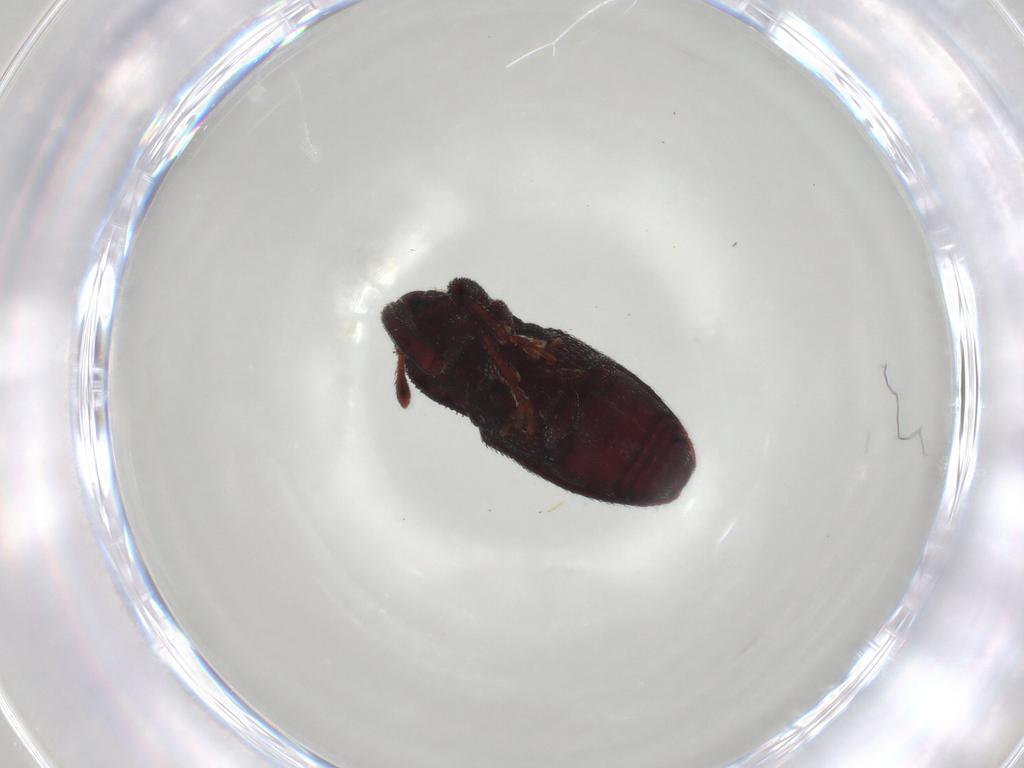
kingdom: Animalia
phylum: Arthropoda
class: Insecta
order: Coleoptera
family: Curculionidae
